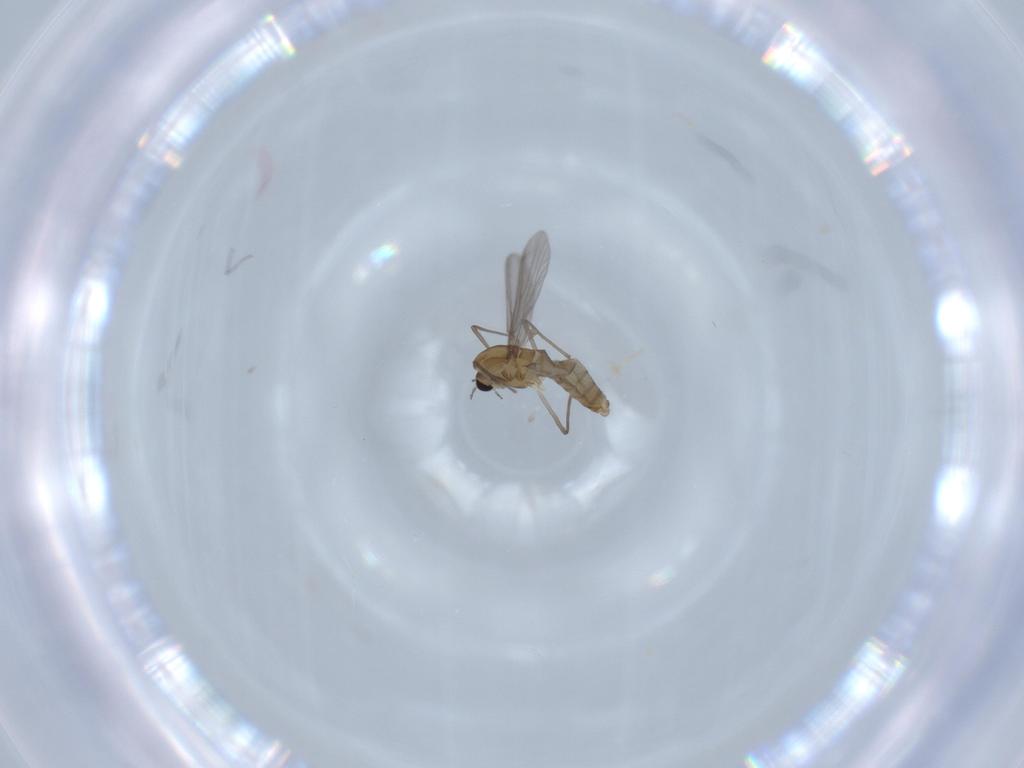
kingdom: Animalia
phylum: Arthropoda
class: Insecta
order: Diptera
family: Chironomidae
